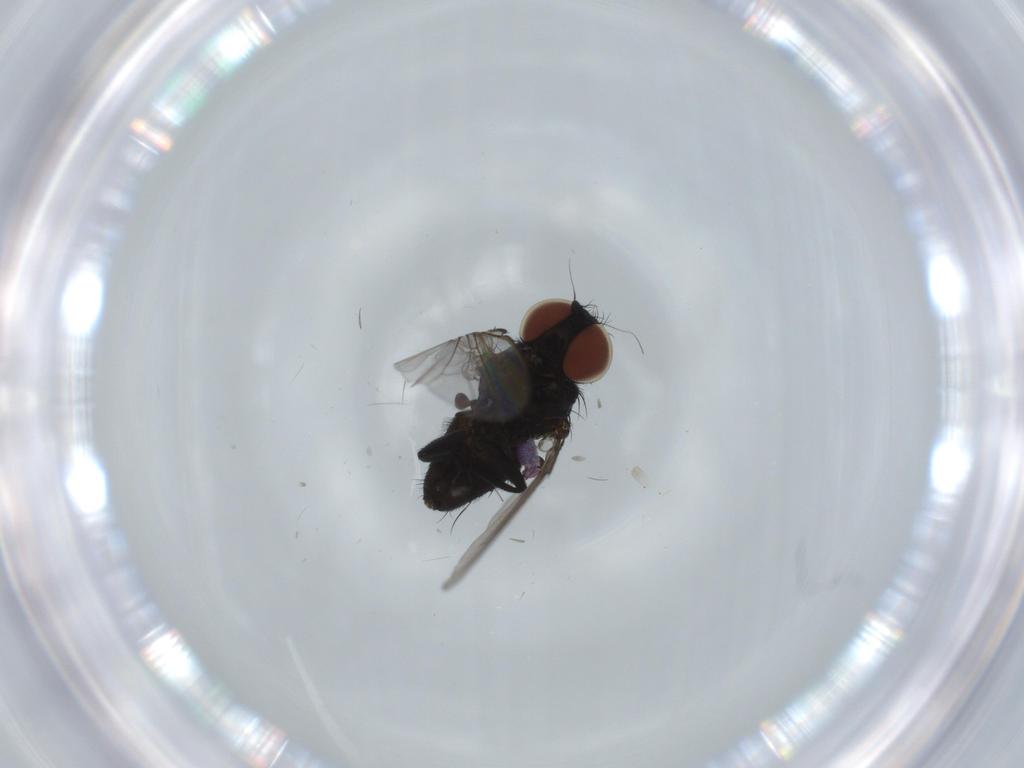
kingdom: Animalia
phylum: Arthropoda
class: Insecta
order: Diptera
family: Milichiidae
